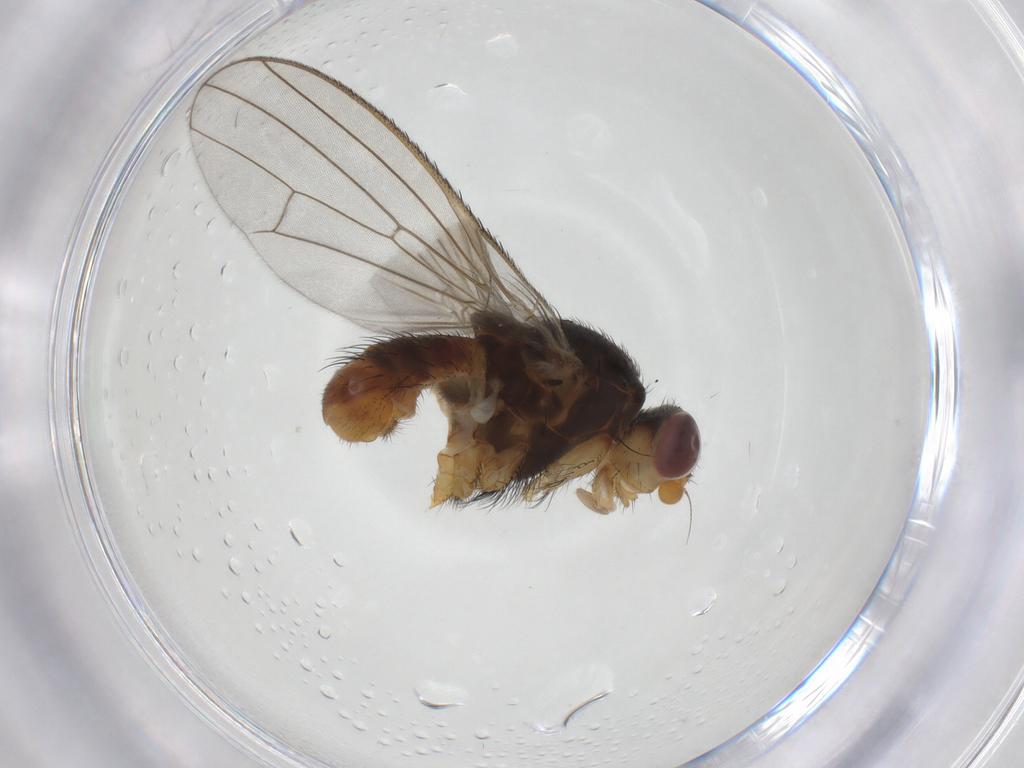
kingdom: Animalia
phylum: Arthropoda
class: Insecta
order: Diptera
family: Heleomyzidae
